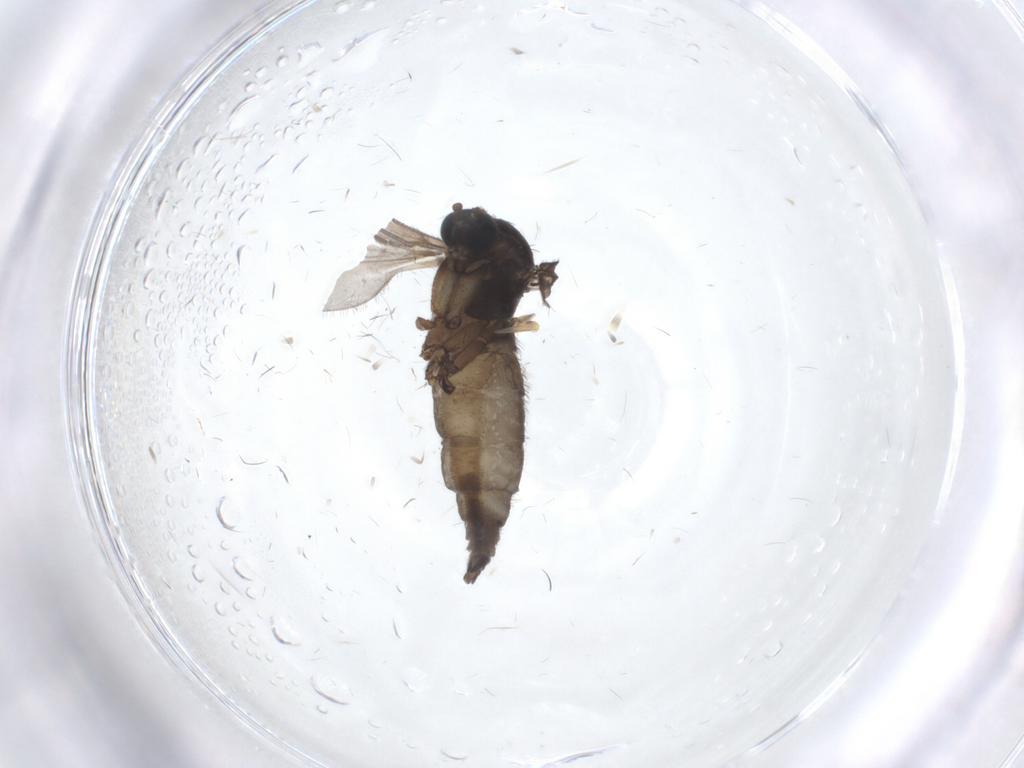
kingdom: Animalia
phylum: Arthropoda
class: Insecta
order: Diptera
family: Sciaridae
